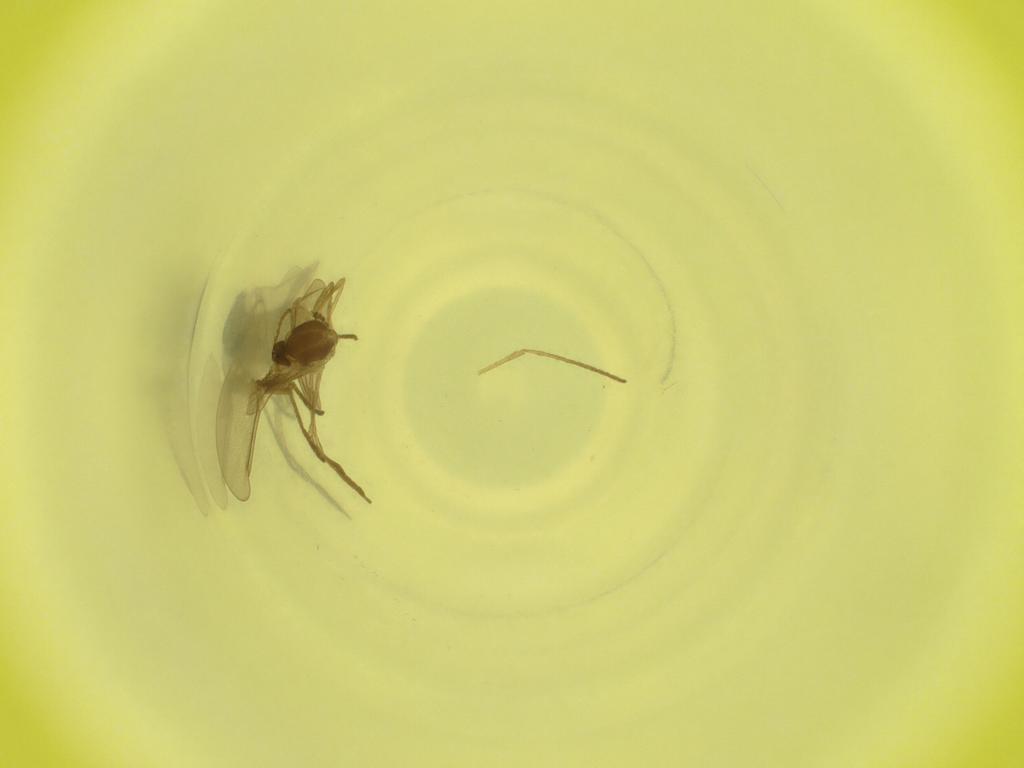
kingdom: Animalia
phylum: Arthropoda
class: Insecta
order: Diptera
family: Cecidomyiidae
